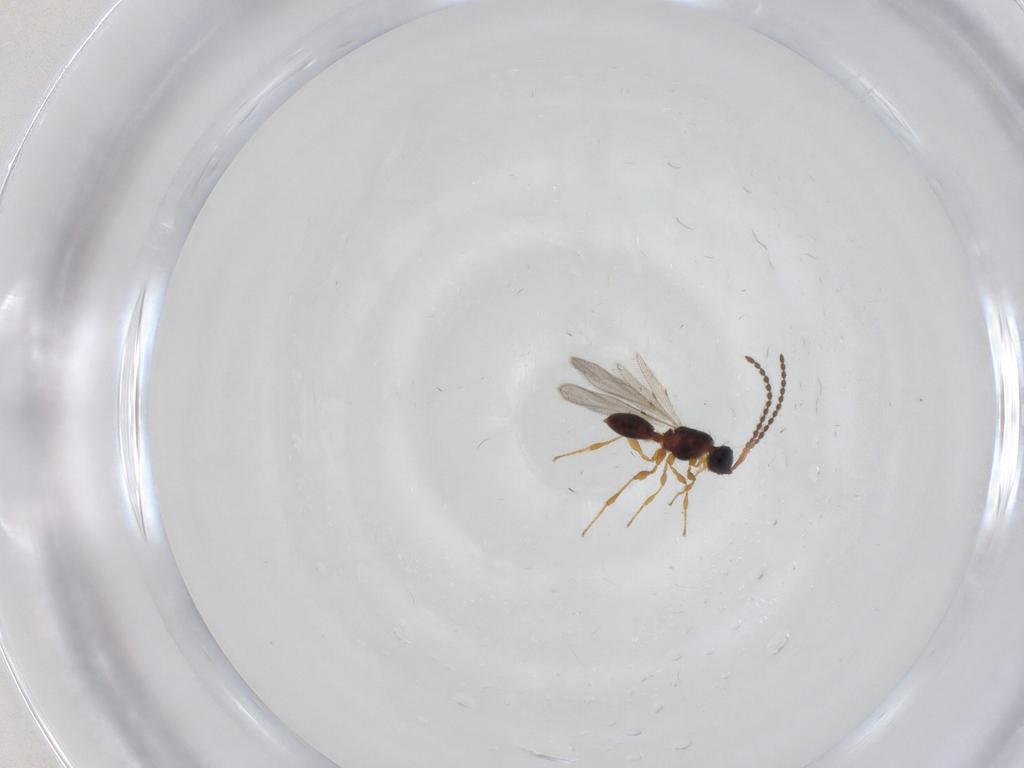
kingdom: Animalia
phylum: Arthropoda
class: Insecta
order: Hymenoptera
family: Diapriidae
